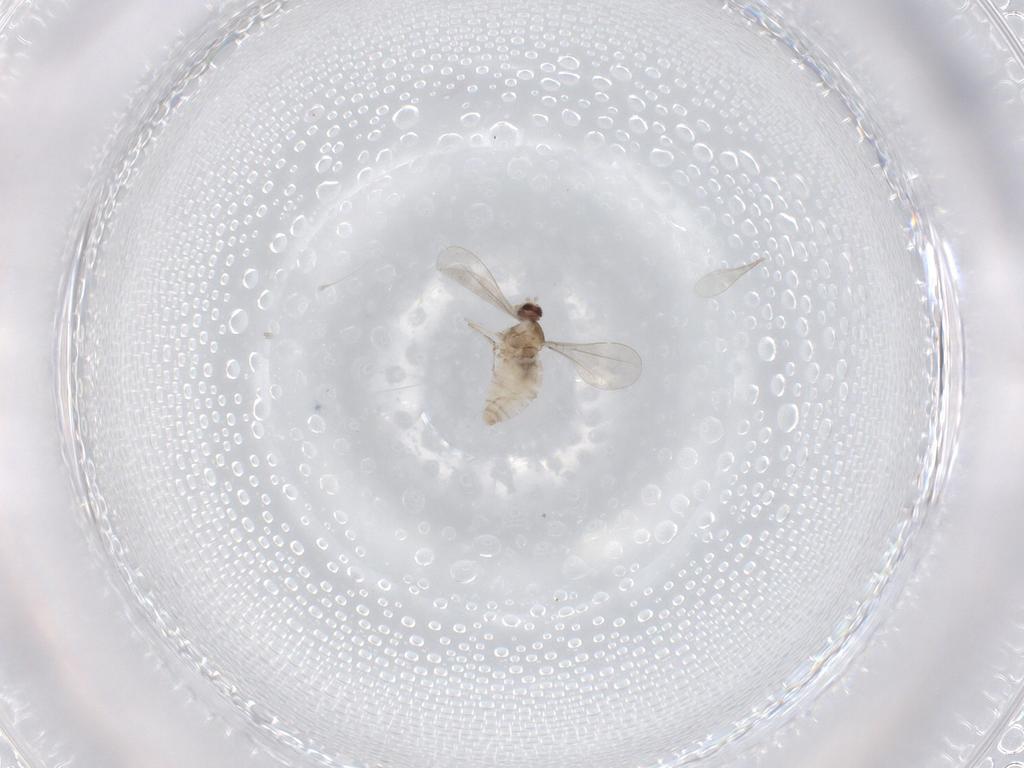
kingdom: Animalia
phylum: Arthropoda
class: Insecta
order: Diptera
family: Cecidomyiidae
